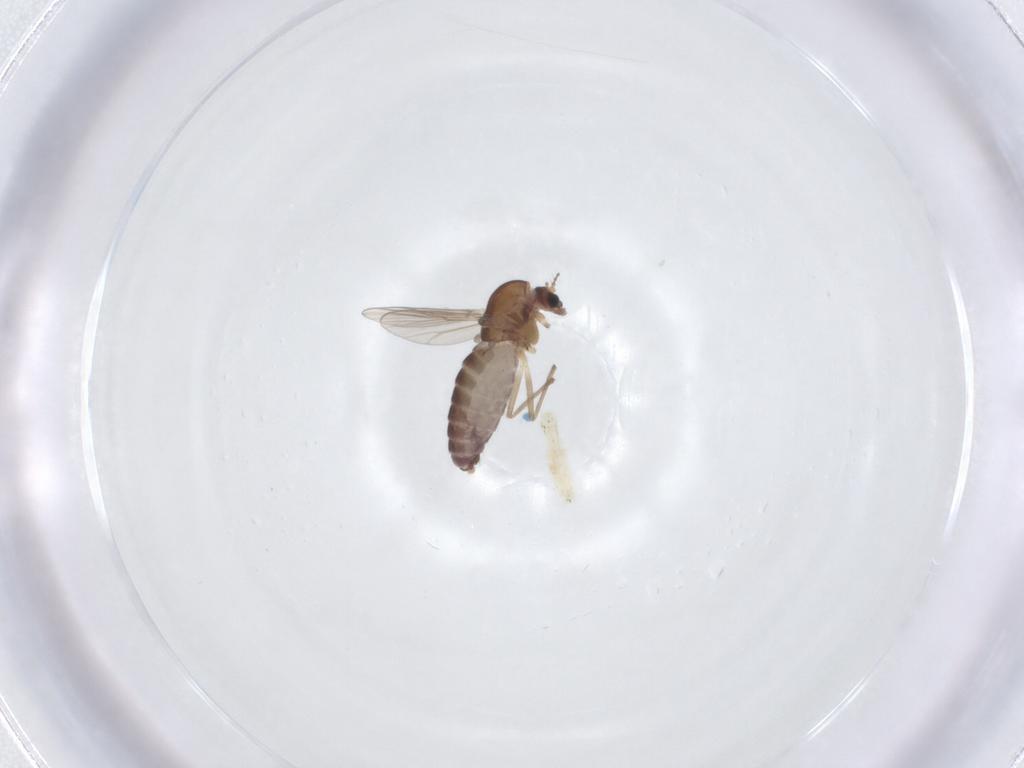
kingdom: Animalia
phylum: Arthropoda
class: Insecta
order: Diptera
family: Chironomidae
